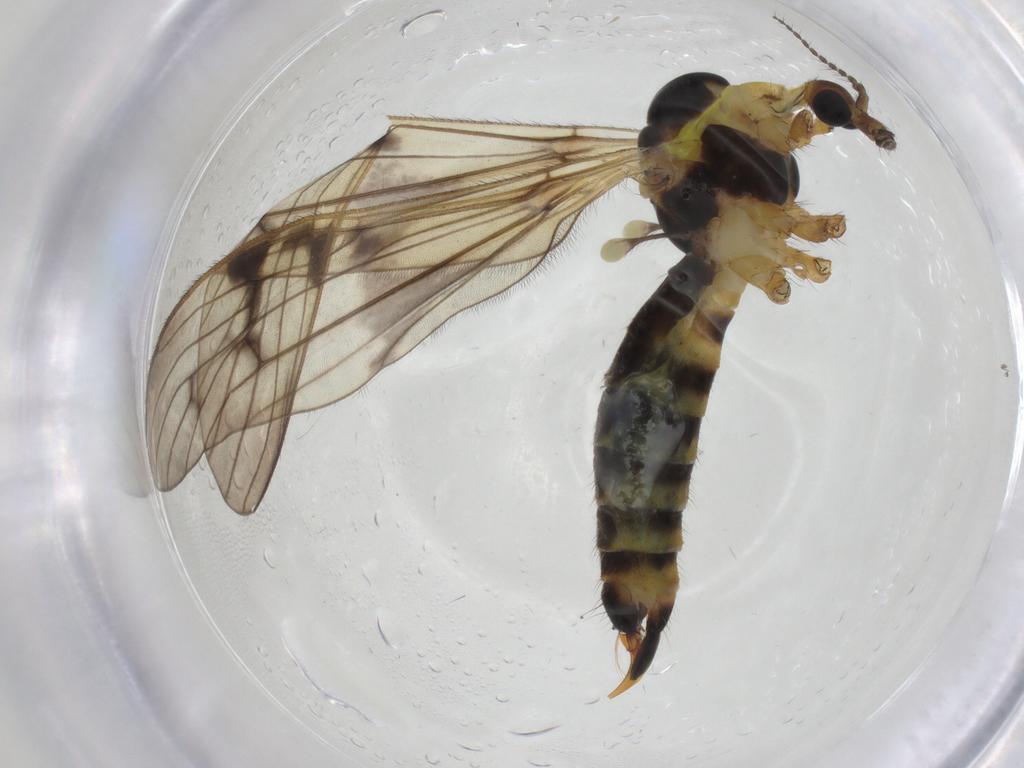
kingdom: Animalia
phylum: Arthropoda
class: Insecta
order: Diptera
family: Limoniidae
